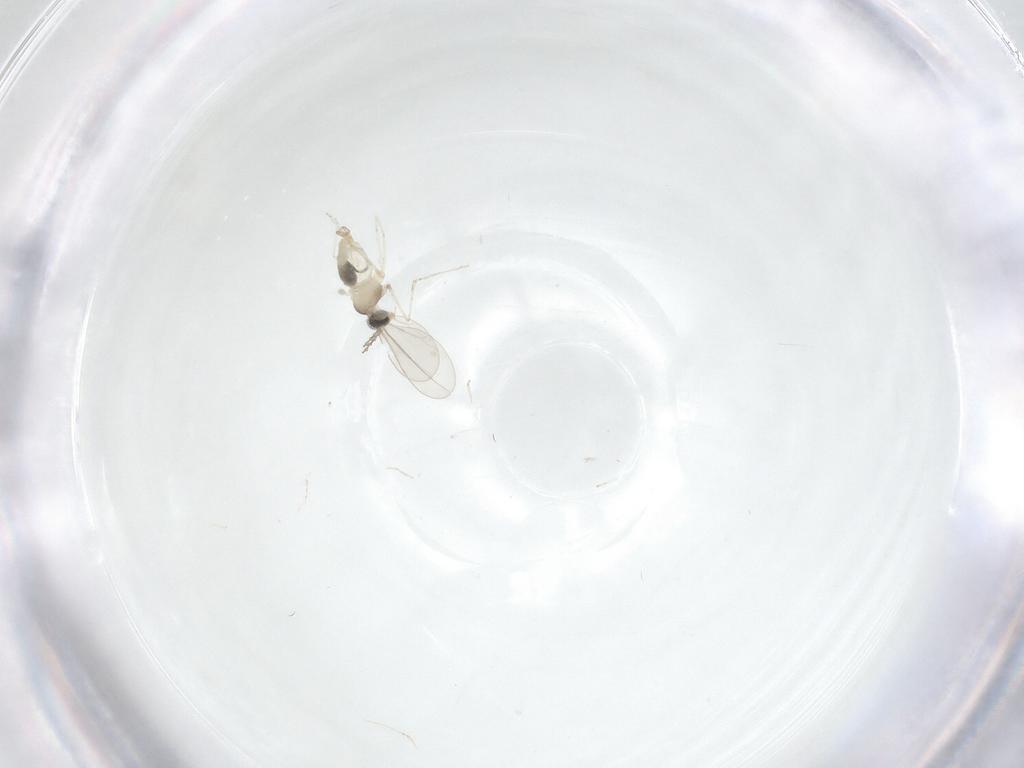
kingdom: Animalia
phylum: Arthropoda
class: Insecta
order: Diptera
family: Cecidomyiidae
